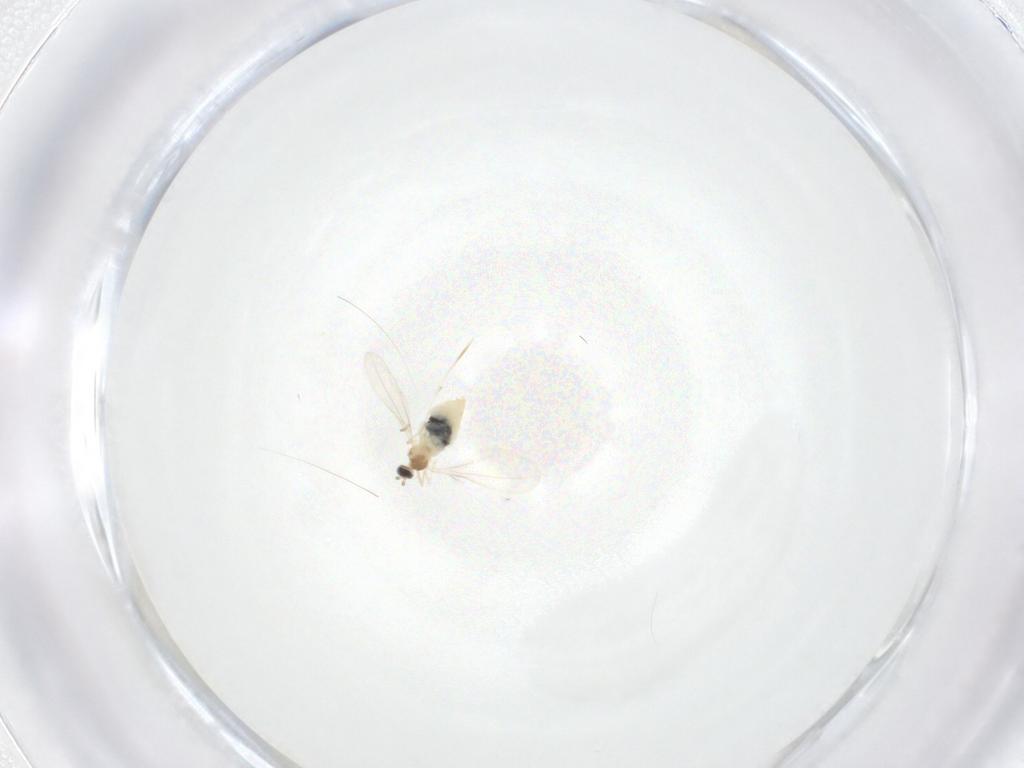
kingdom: Animalia
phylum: Arthropoda
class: Insecta
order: Diptera
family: Cecidomyiidae
